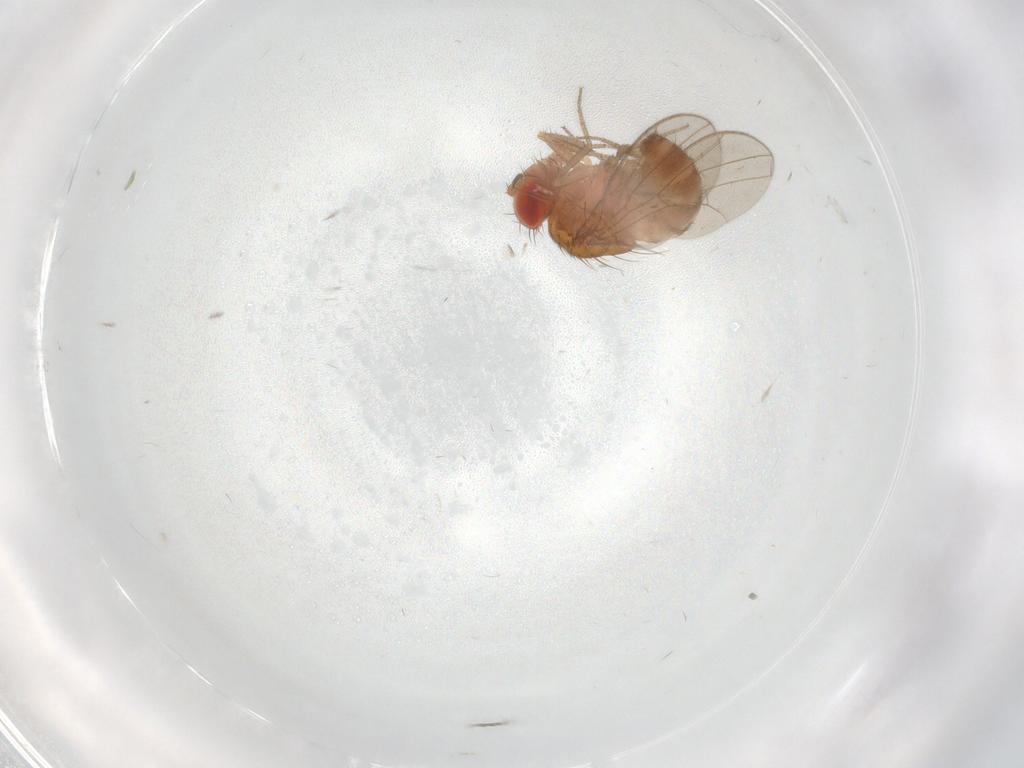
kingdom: Animalia
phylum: Arthropoda
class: Insecta
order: Diptera
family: Drosophilidae
